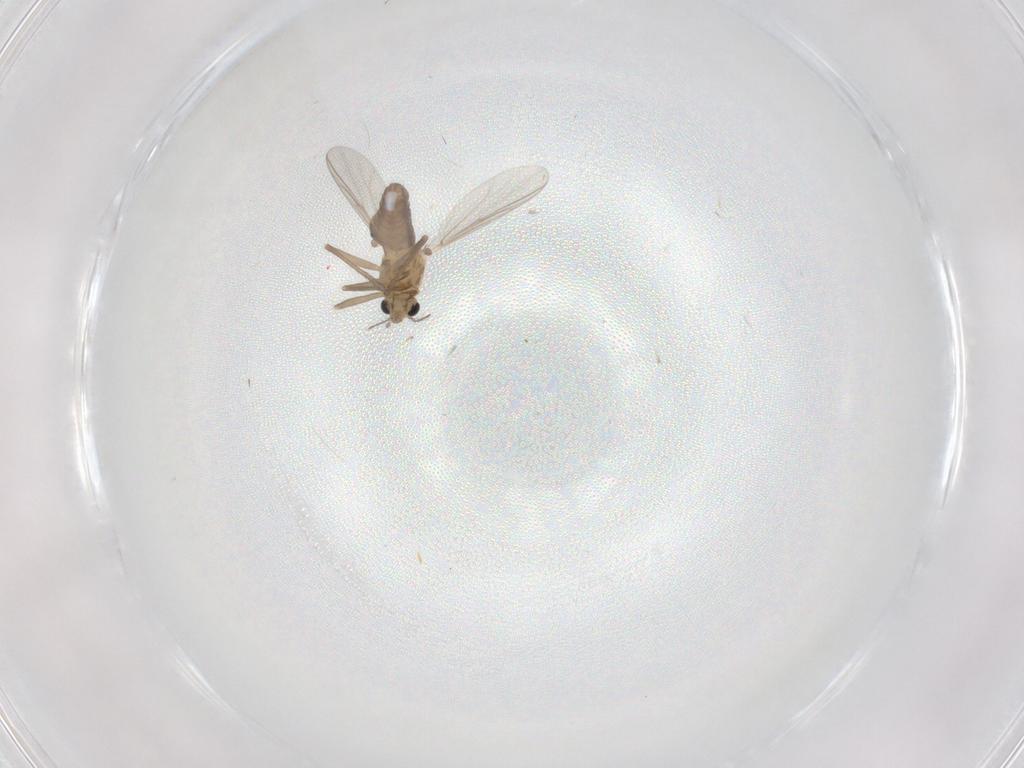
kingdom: Animalia
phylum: Arthropoda
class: Insecta
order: Diptera
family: Chironomidae
